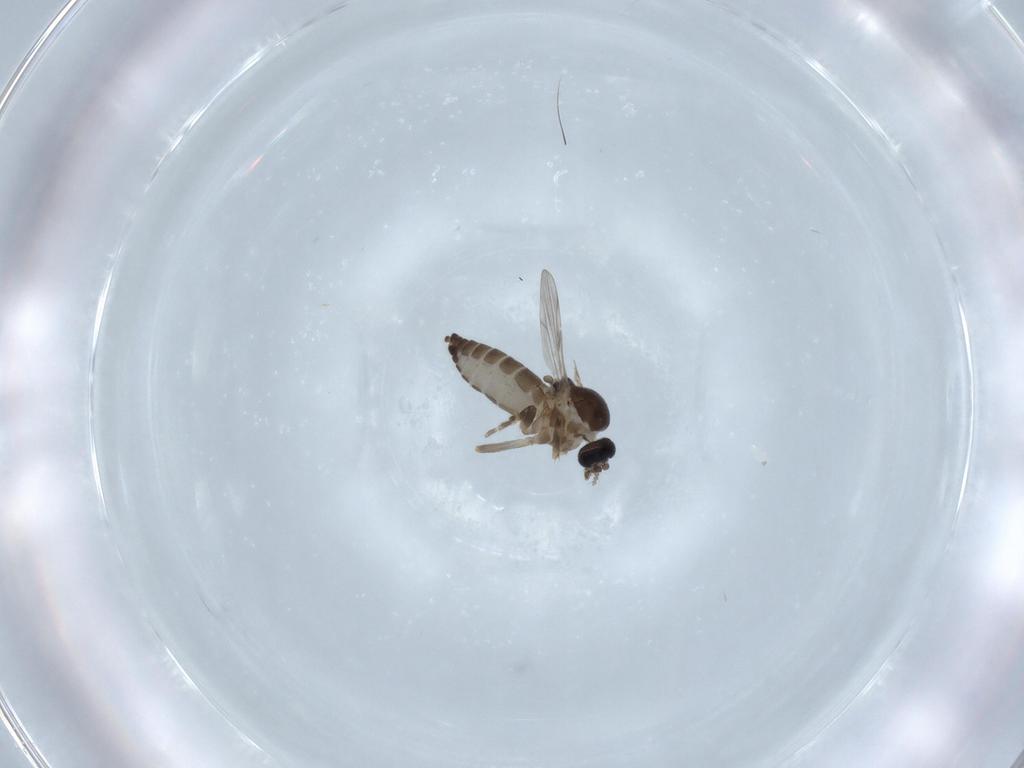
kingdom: Animalia
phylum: Arthropoda
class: Insecta
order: Diptera
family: Ceratopogonidae
